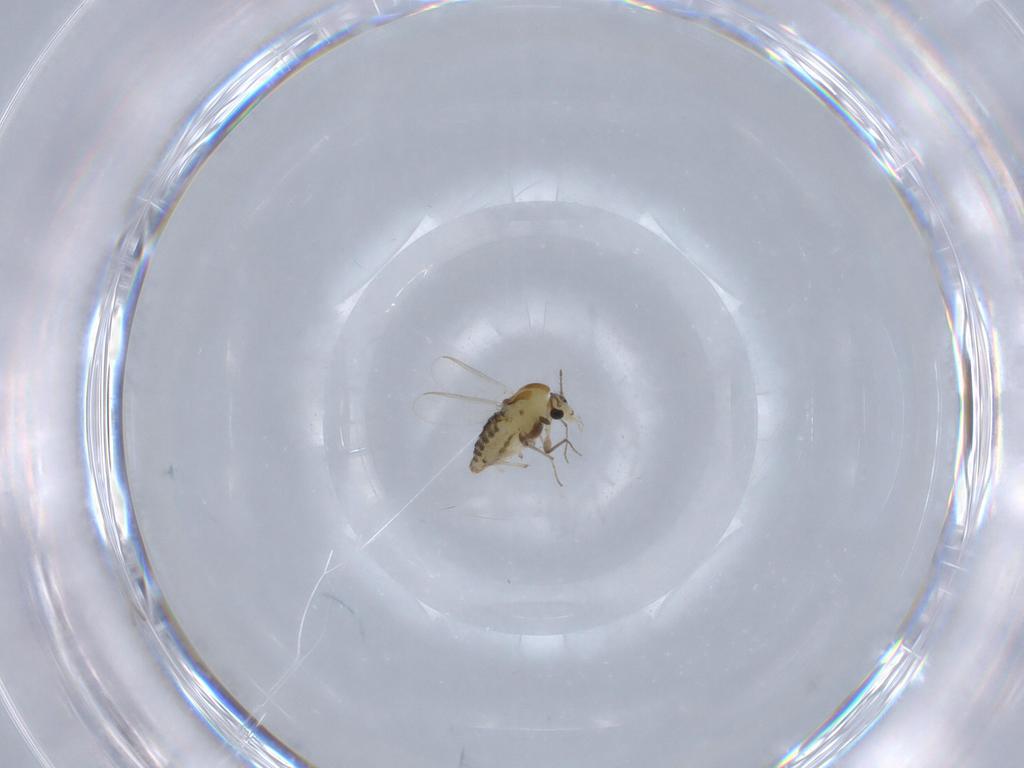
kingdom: Animalia
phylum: Arthropoda
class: Insecta
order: Diptera
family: Chironomidae
